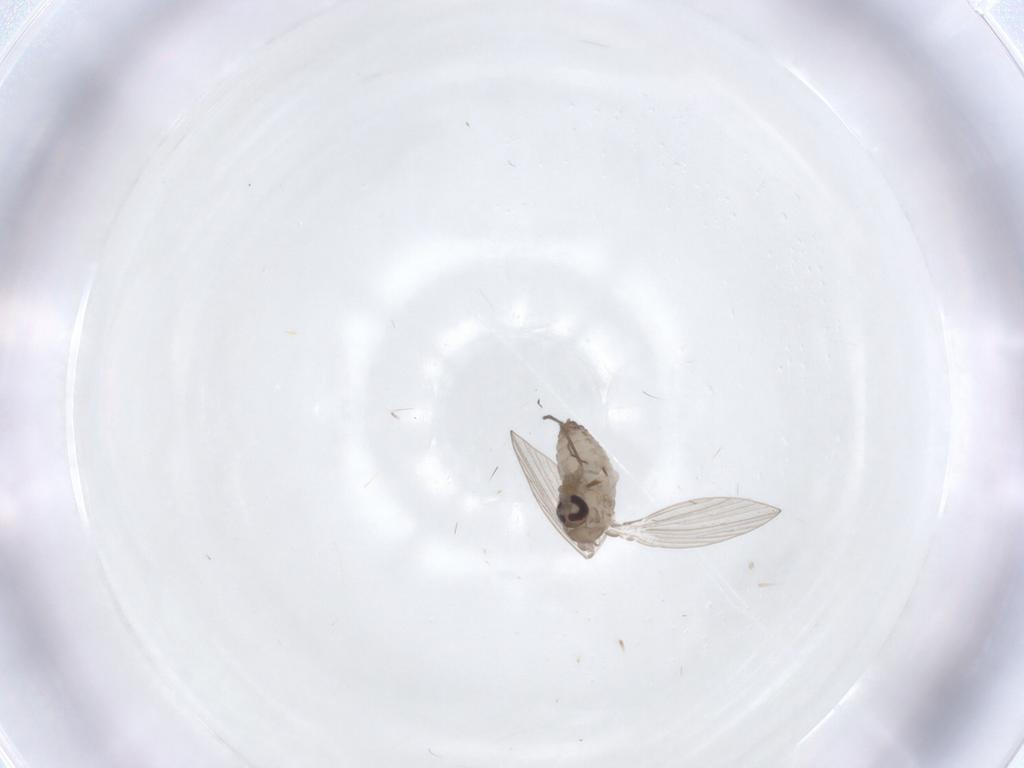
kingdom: Animalia
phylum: Arthropoda
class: Insecta
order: Diptera
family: Psychodidae
